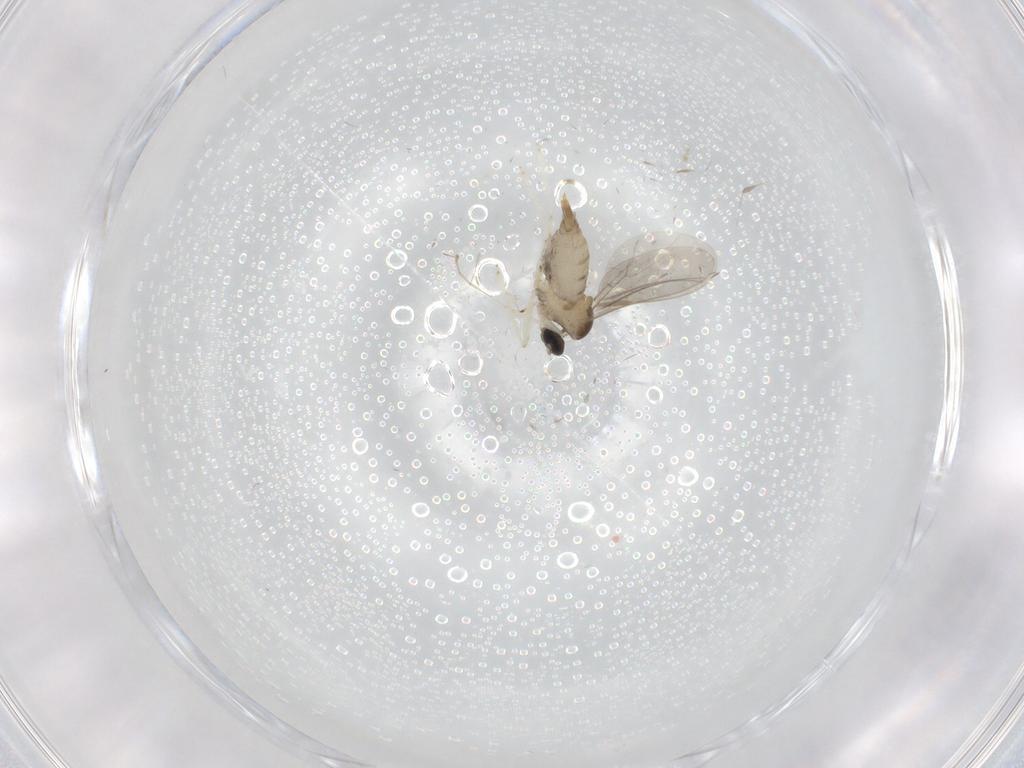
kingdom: Animalia
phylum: Arthropoda
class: Insecta
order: Diptera
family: Cecidomyiidae
